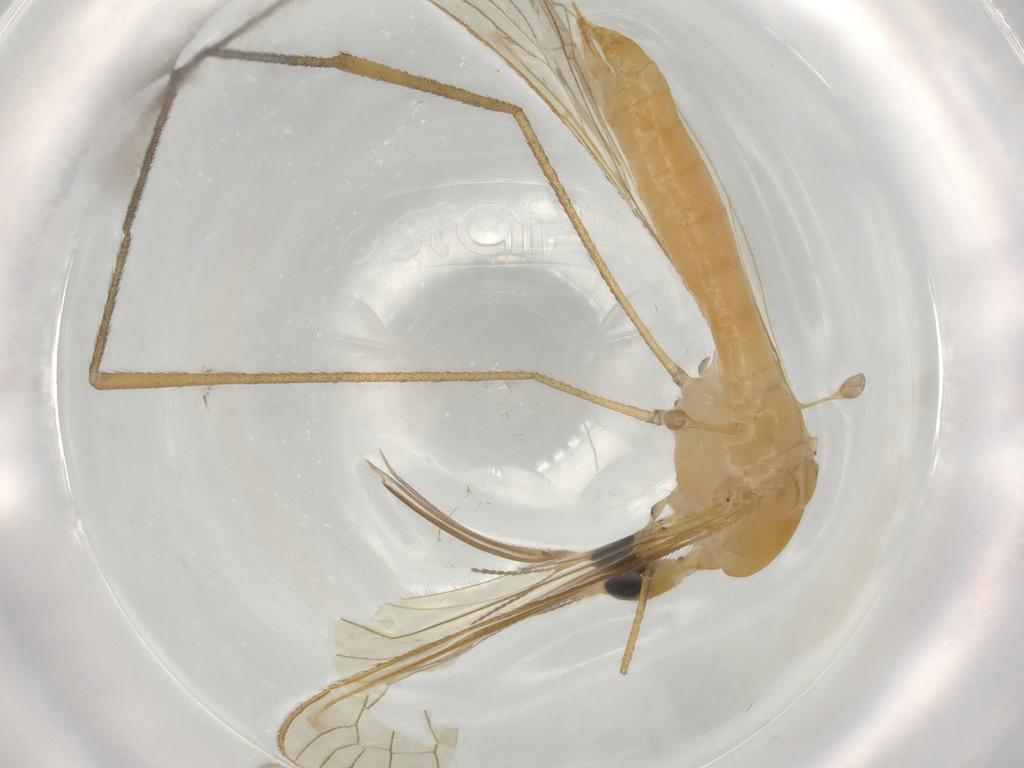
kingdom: Animalia
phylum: Arthropoda
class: Insecta
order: Diptera
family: Cecidomyiidae
